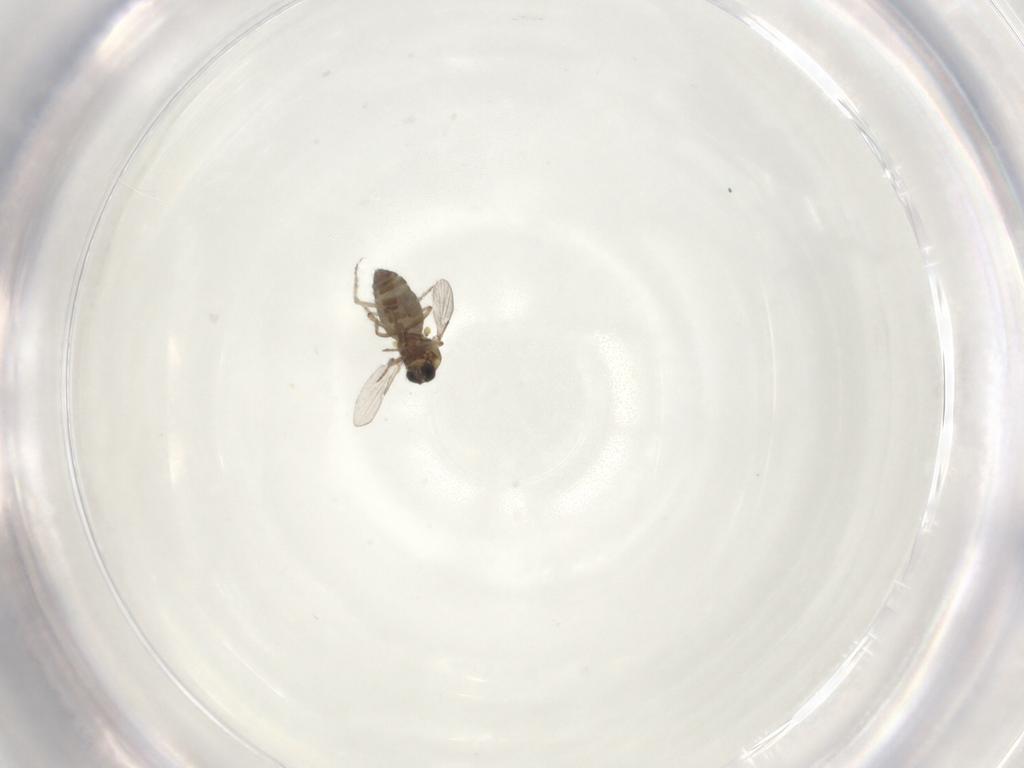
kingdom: Animalia
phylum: Arthropoda
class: Insecta
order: Diptera
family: Ceratopogonidae
